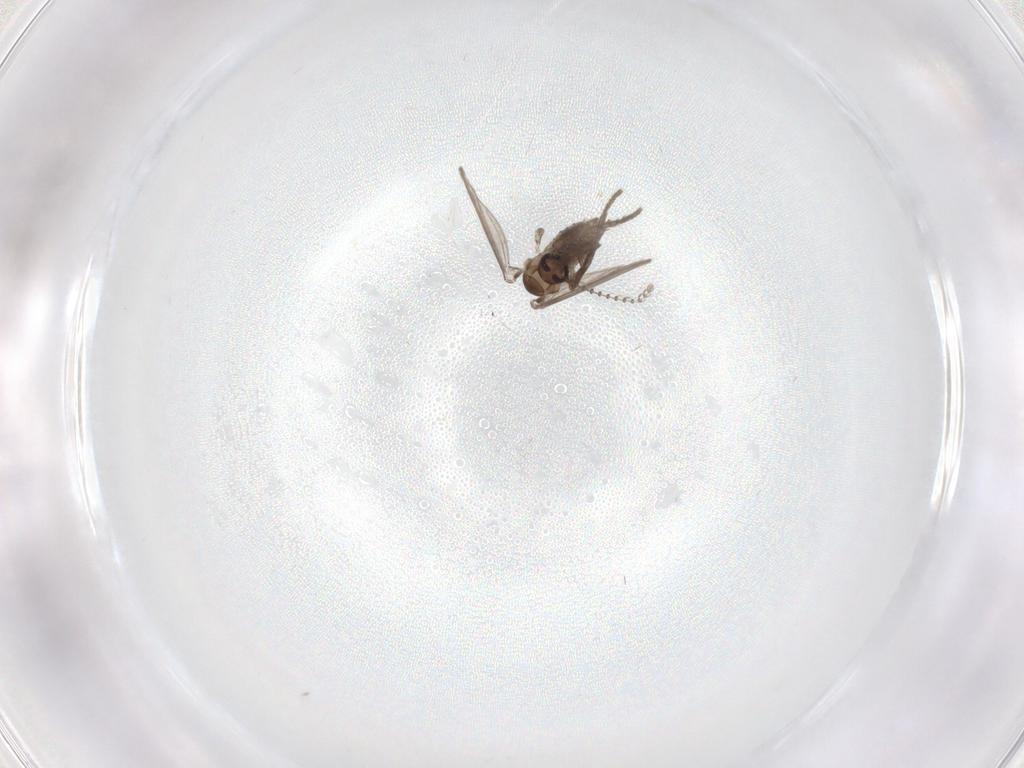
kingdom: Animalia
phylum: Arthropoda
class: Insecta
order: Diptera
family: Psychodidae
